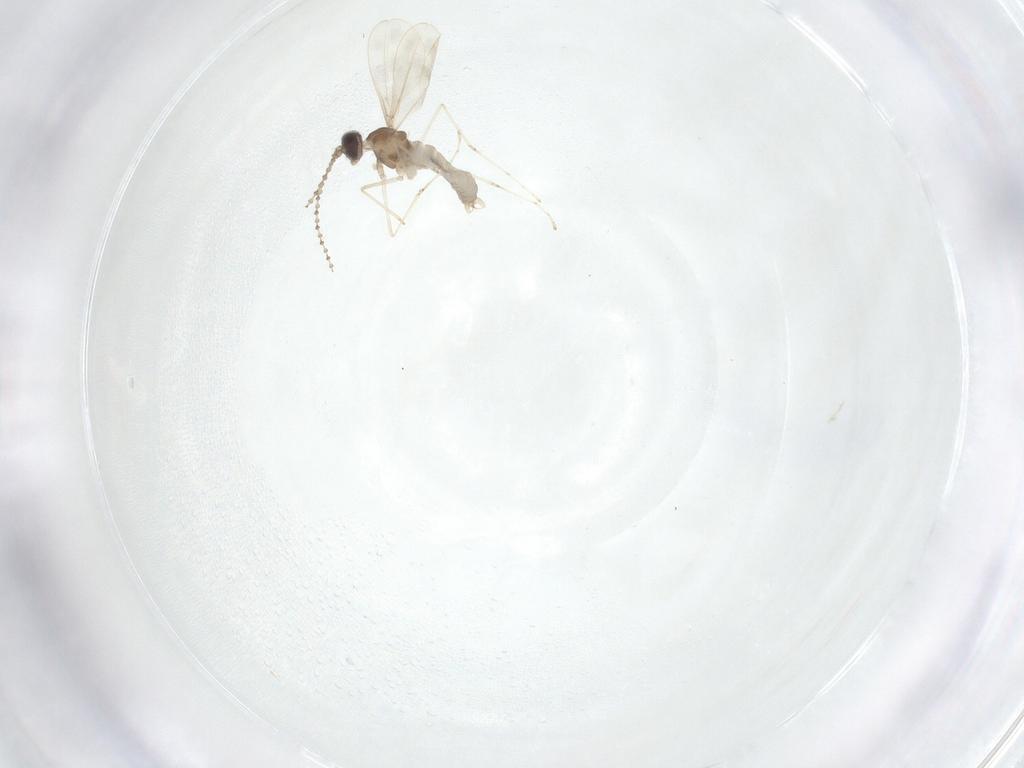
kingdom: Animalia
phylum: Arthropoda
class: Insecta
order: Diptera
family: Cecidomyiidae
